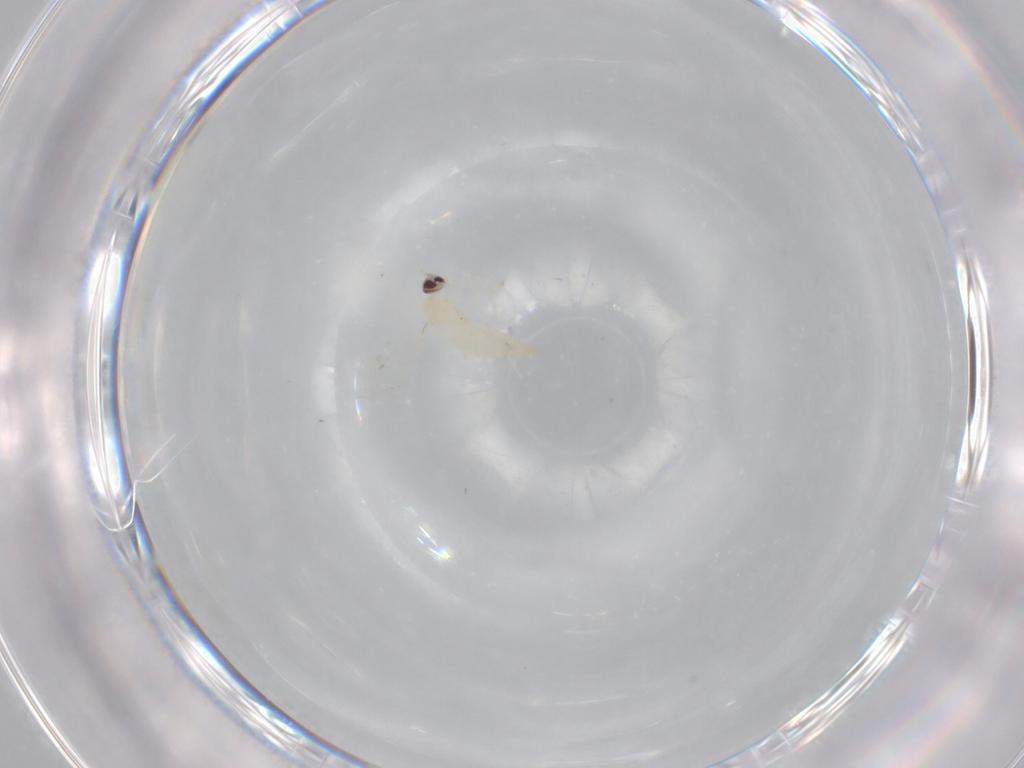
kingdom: Animalia
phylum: Arthropoda
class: Insecta
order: Diptera
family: Cecidomyiidae
